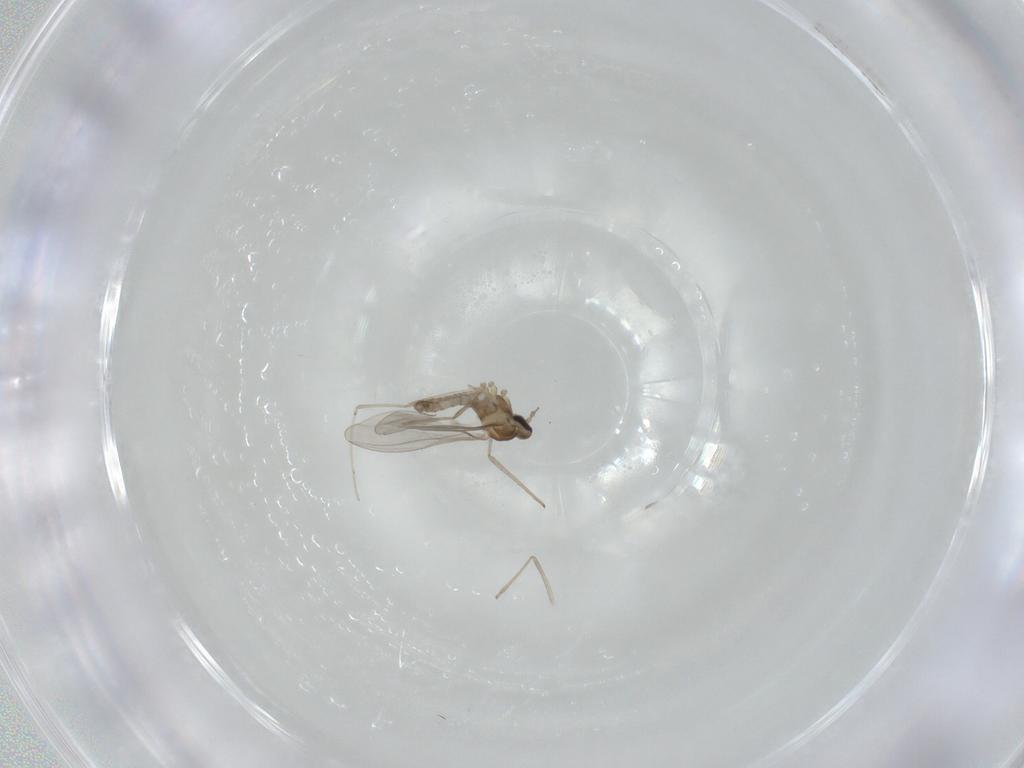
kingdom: Animalia
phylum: Arthropoda
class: Insecta
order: Diptera
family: Cecidomyiidae
